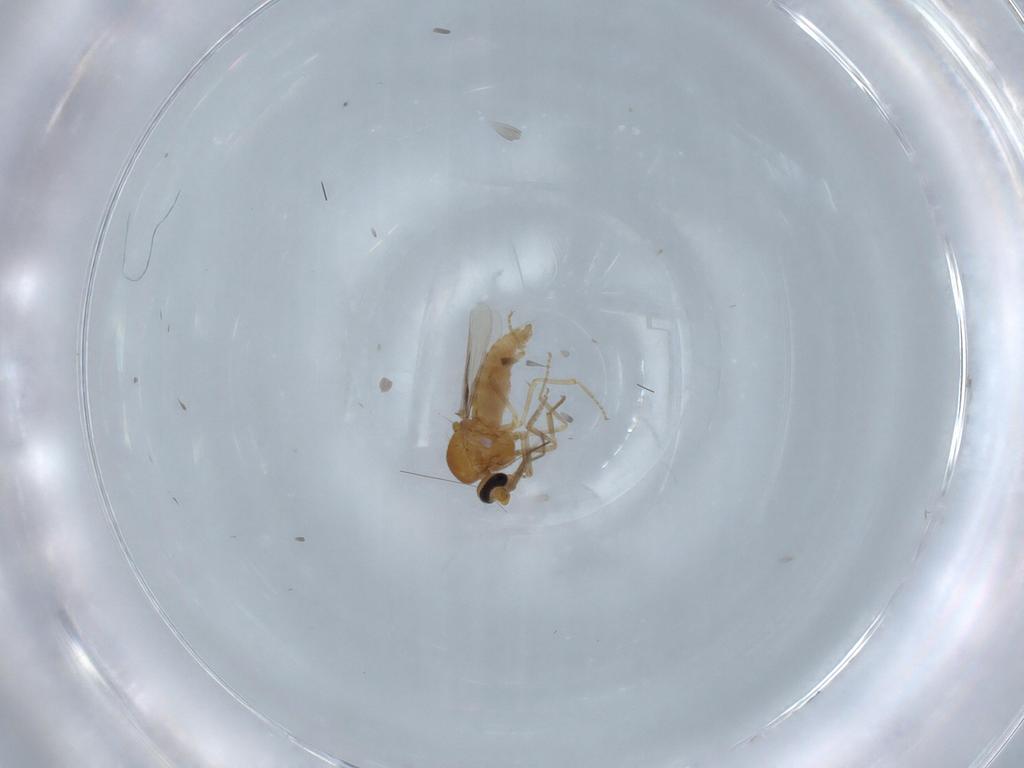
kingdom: Animalia
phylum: Arthropoda
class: Insecta
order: Diptera
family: Ceratopogonidae
